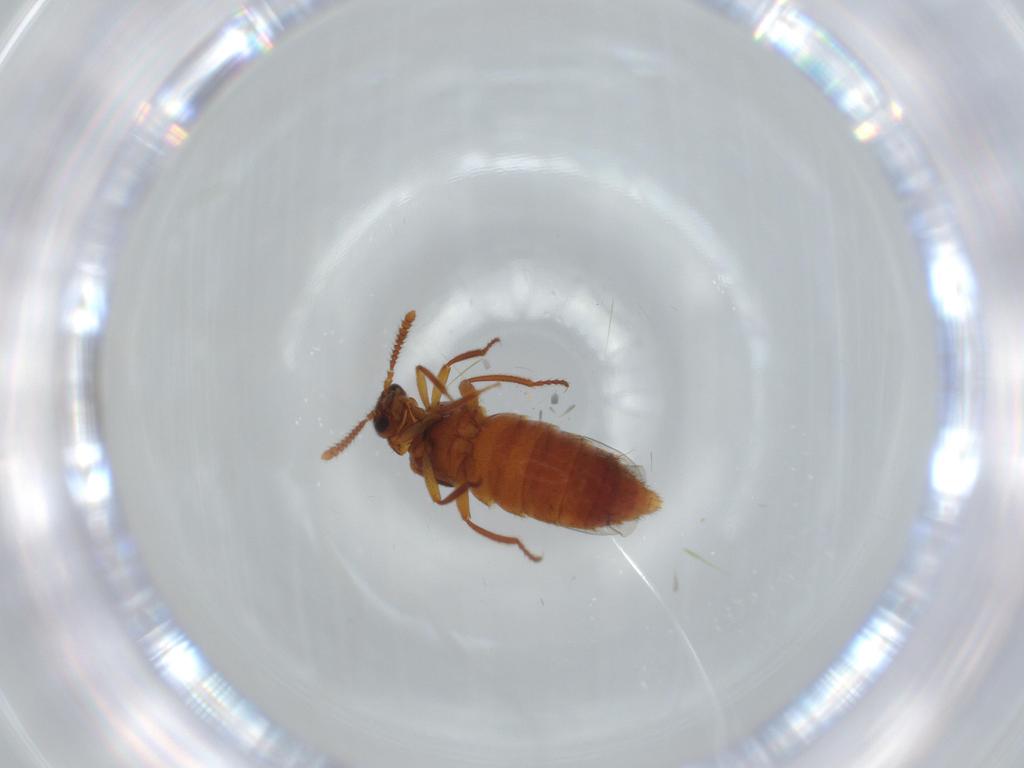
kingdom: Animalia
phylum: Arthropoda
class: Insecta
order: Coleoptera
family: Staphylinidae
